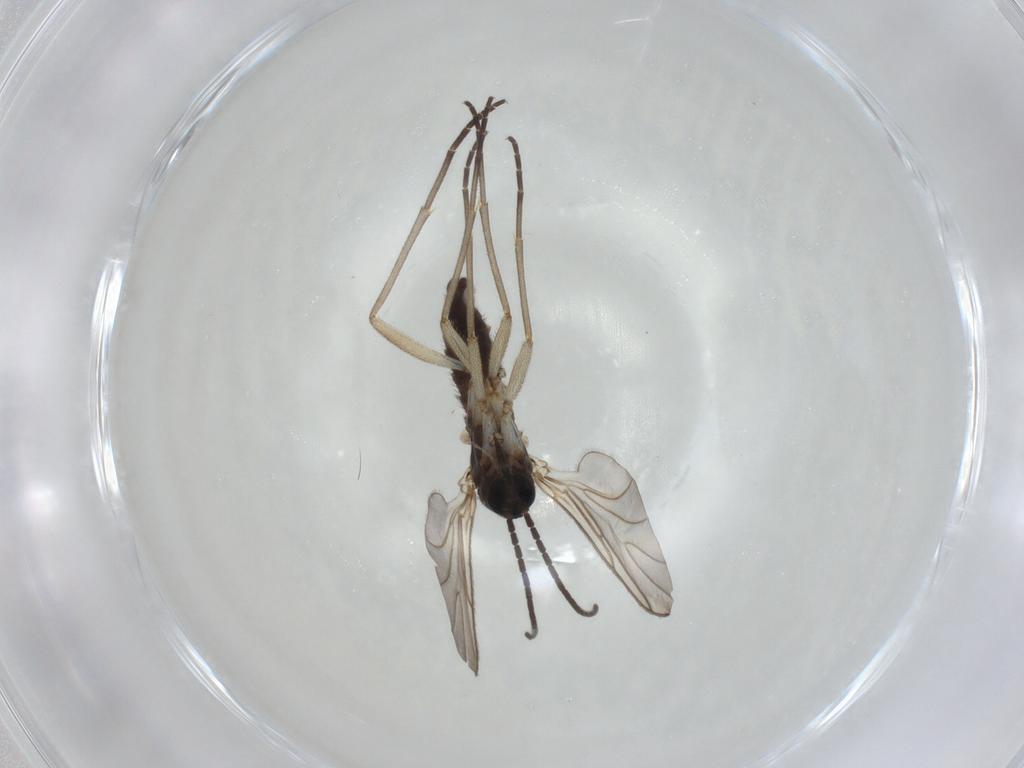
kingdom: Animalia
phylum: Arthropoda
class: Insecta
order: Diptera
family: Sciaridae
